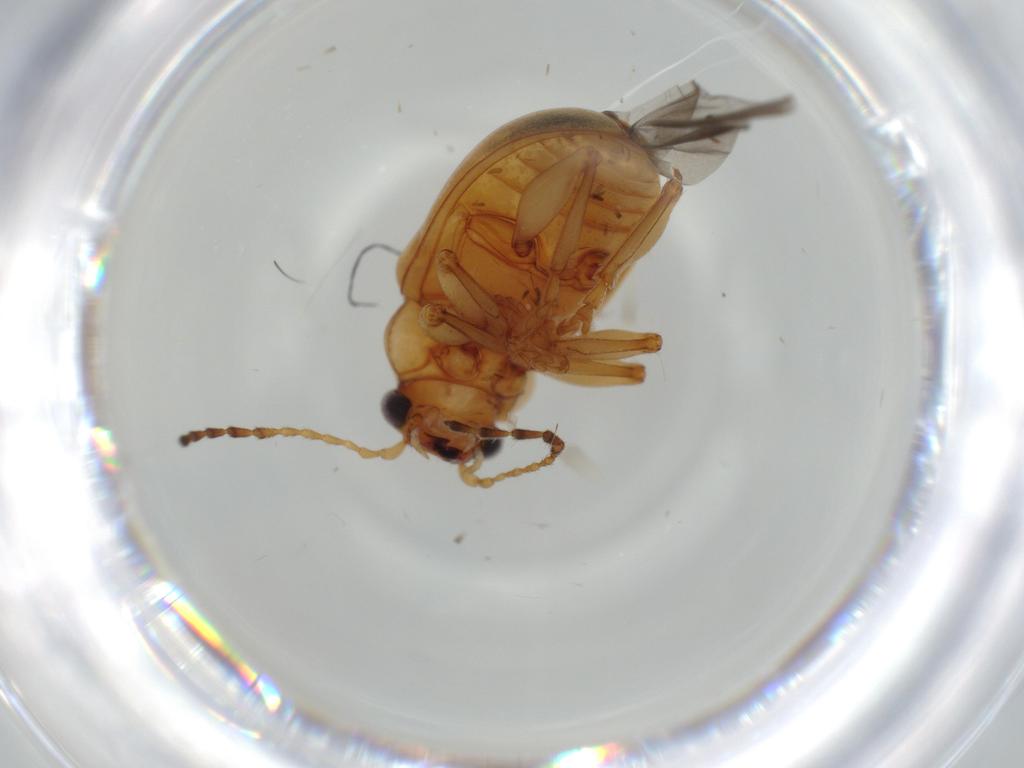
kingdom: Animalia
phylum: Arthropoda
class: Insecta
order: Coleoptera
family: Chrysomelidae
